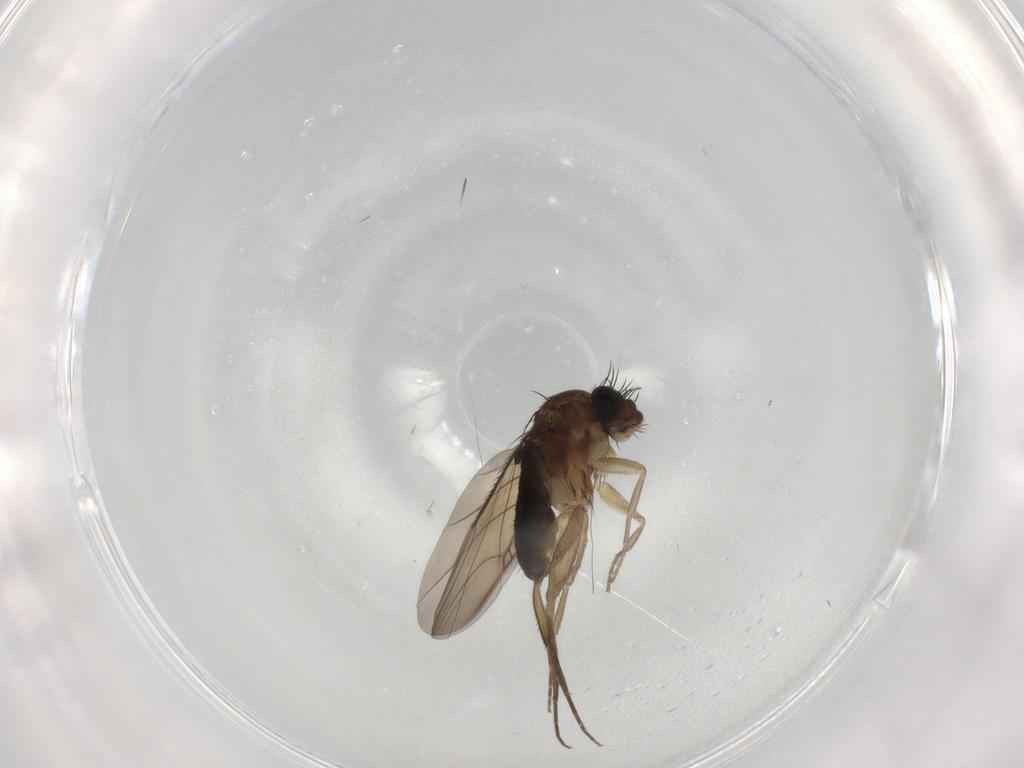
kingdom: Animalia
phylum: Arthropoda
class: Insecta
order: Diptera
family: Phoridae
